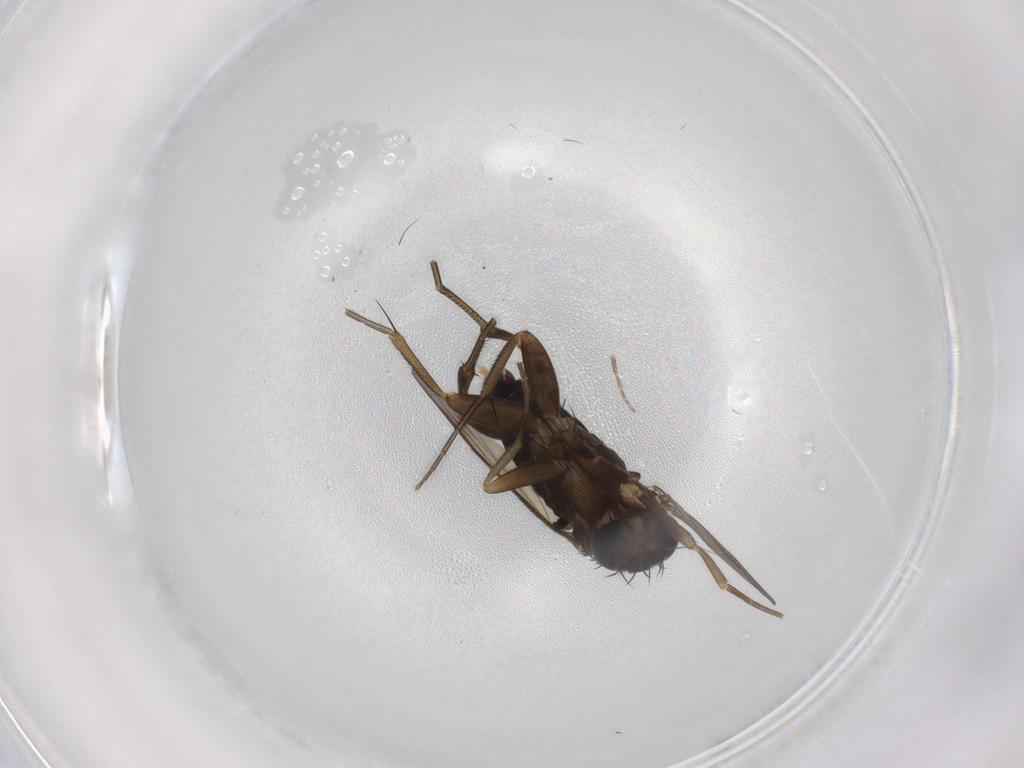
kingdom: Animalia
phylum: Arthropoda
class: Insecta
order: Diptera
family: Phoridae
